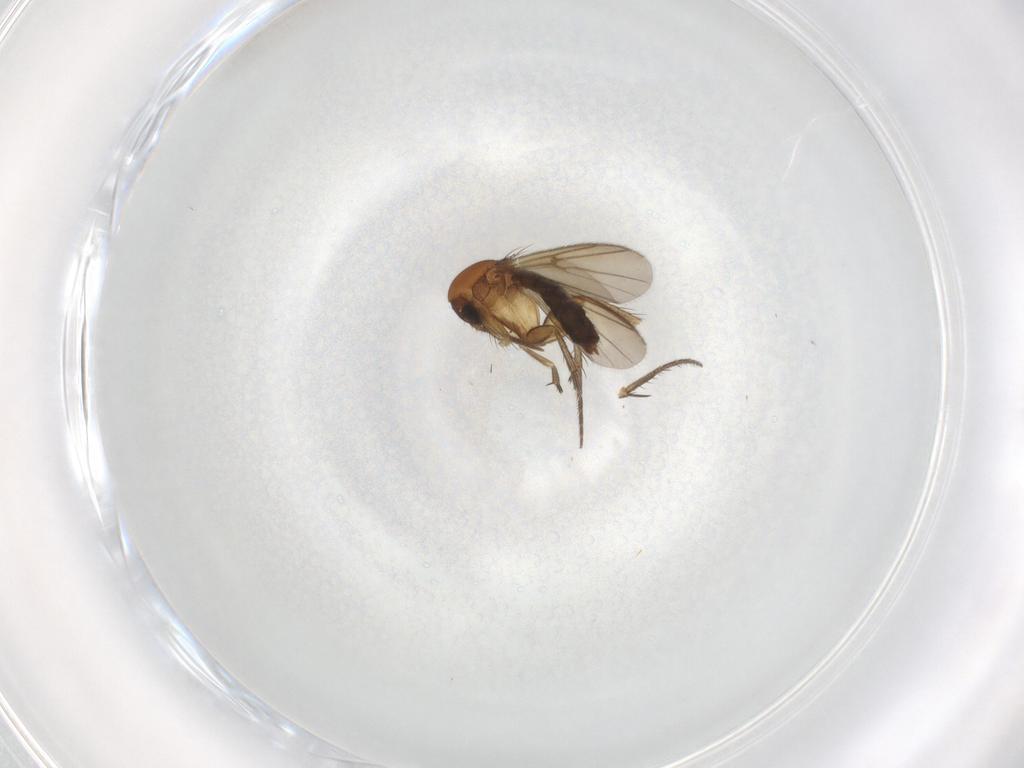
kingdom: Animalia
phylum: Arthropoda
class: Insecta
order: Diptera
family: Mycetophilidae
